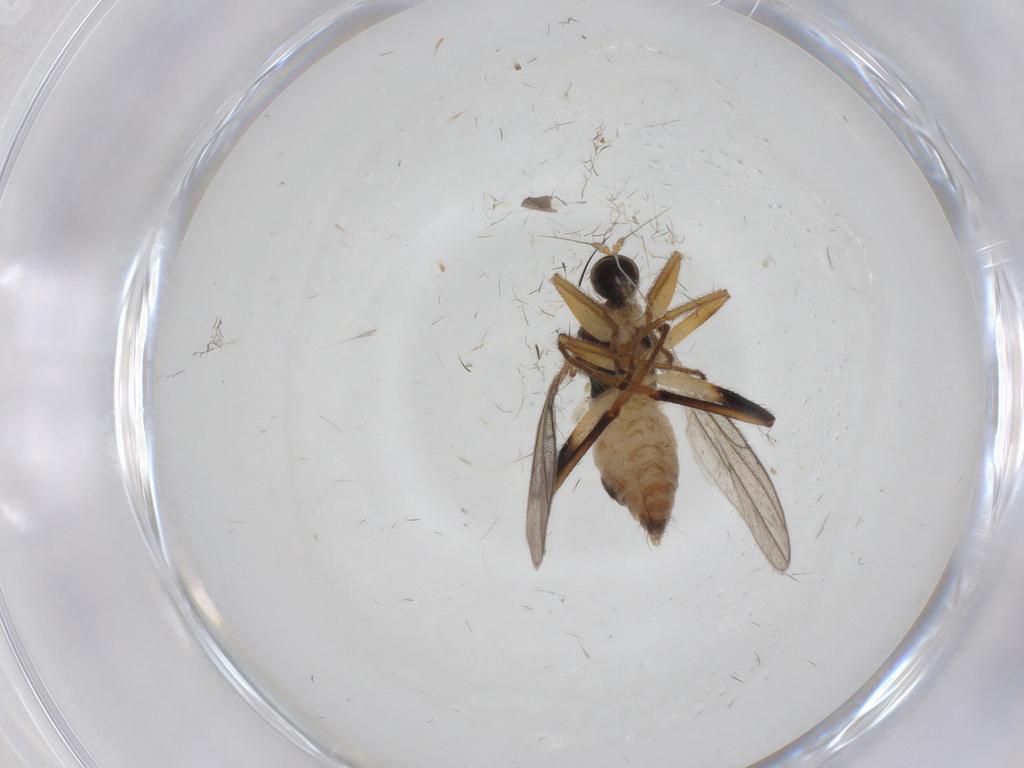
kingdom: Animalia
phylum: Arthropoda
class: Insecta
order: Diptera
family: Hybotidae
